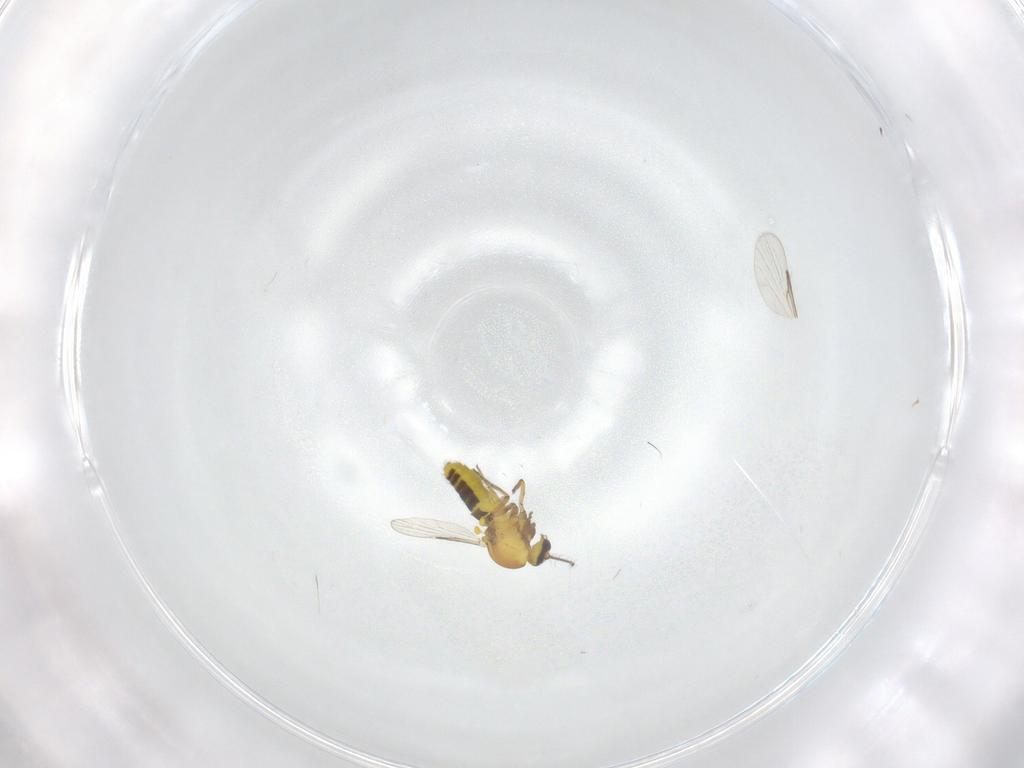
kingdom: Animalia
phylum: Arthropoda
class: Insecta
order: Diptera
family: Ceratopogonidae
